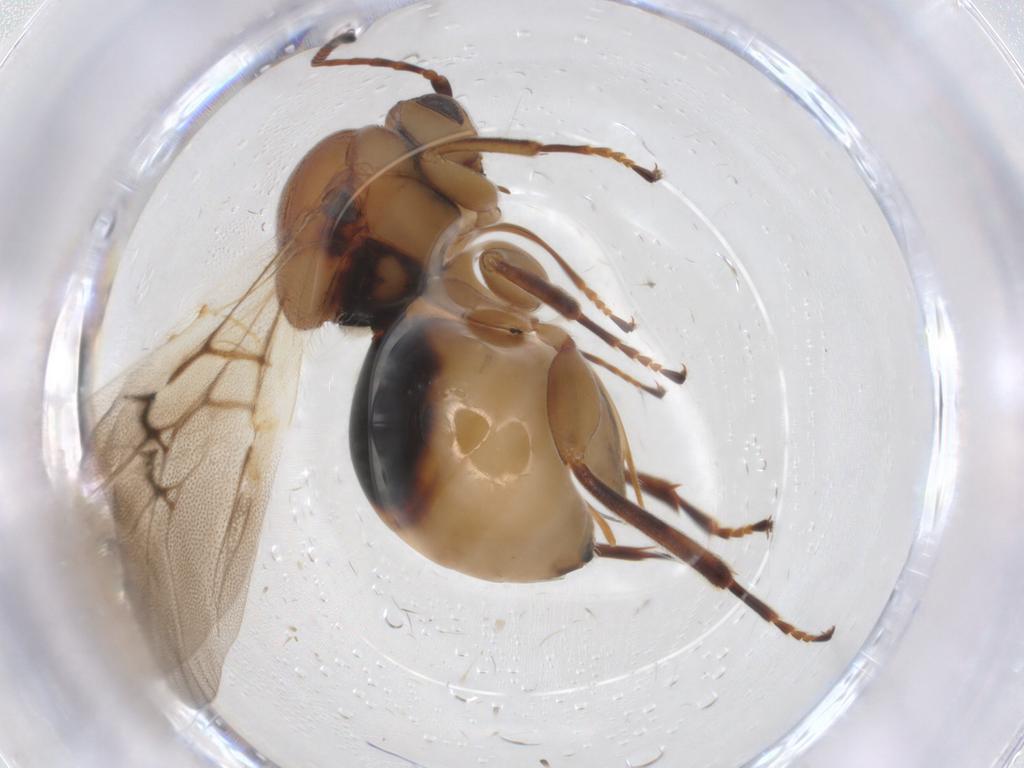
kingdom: Animalia
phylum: Arthropoda
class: Insecta
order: Hymenoptera
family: Cynipidae
